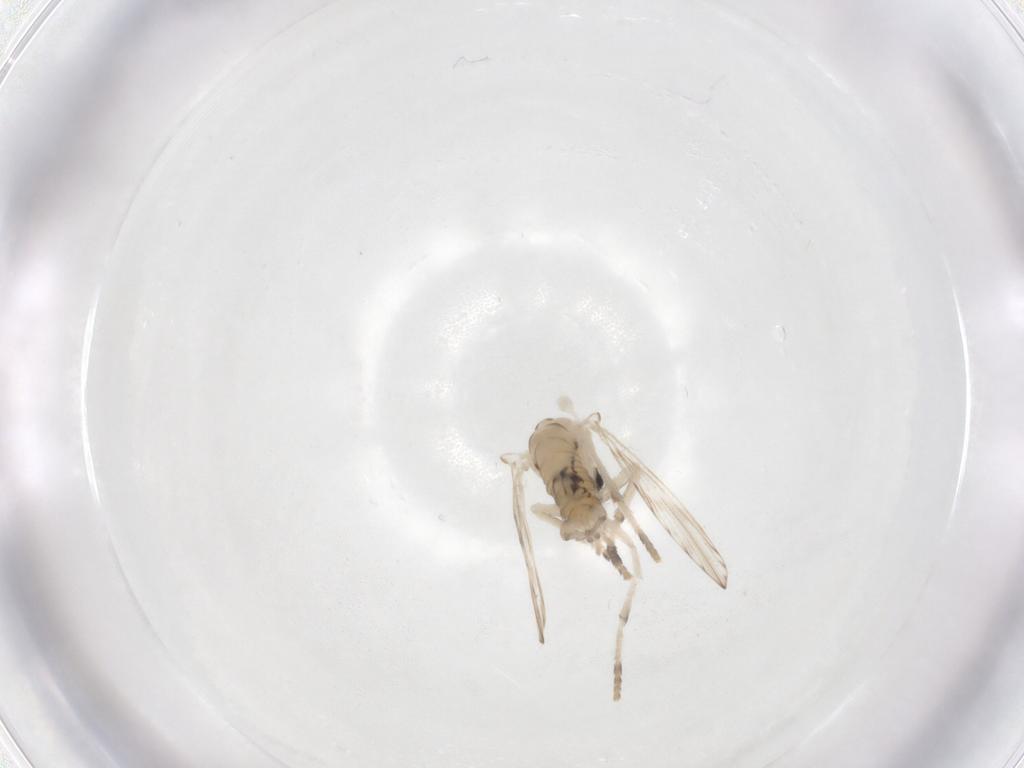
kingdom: Animalia
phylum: Arthropoda
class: Insecta
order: Diptera
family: Psychodidae
